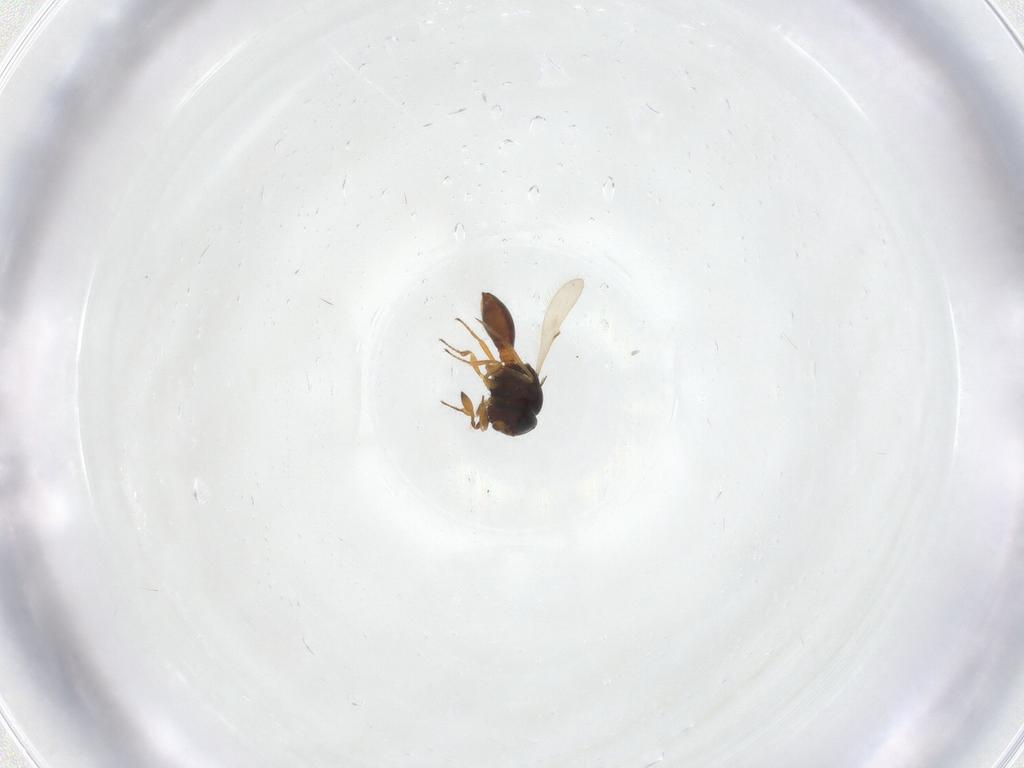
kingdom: Animalia
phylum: Arthropoda
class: Arachnida
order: Araneae
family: Pholcidae
